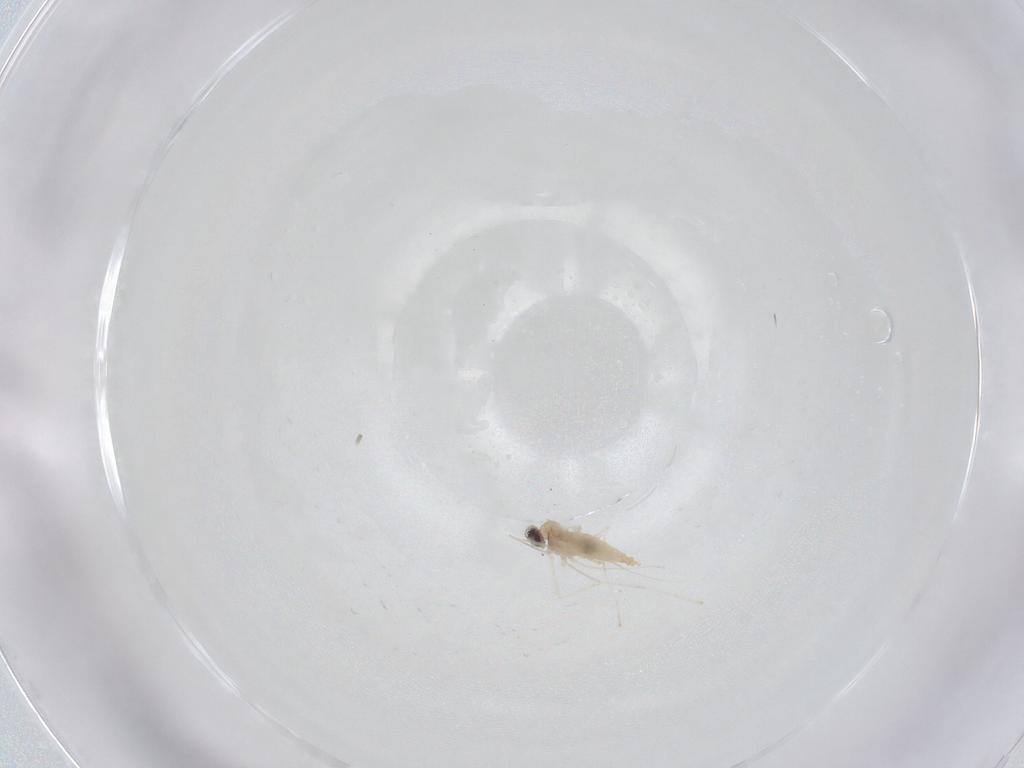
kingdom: Animalia
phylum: Arthropoda
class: Insecta
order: Diptera
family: Cecidomyiidae
